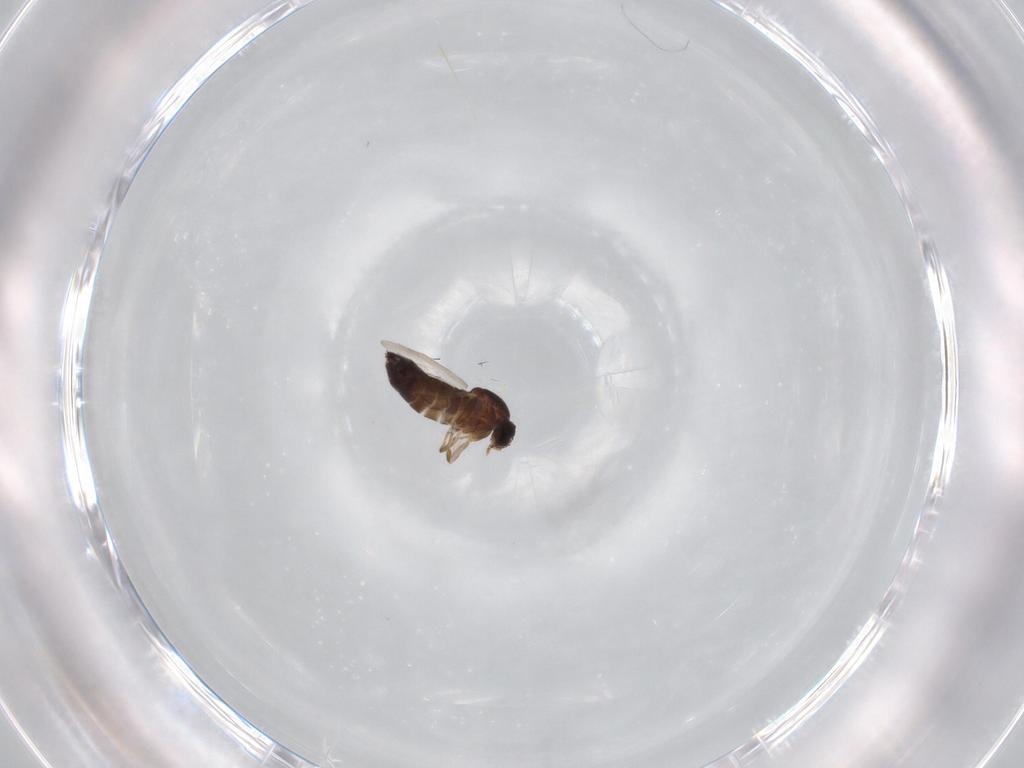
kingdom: Animalia
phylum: Arthropoda
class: Insecta
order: Diptera
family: Scatopsidae
